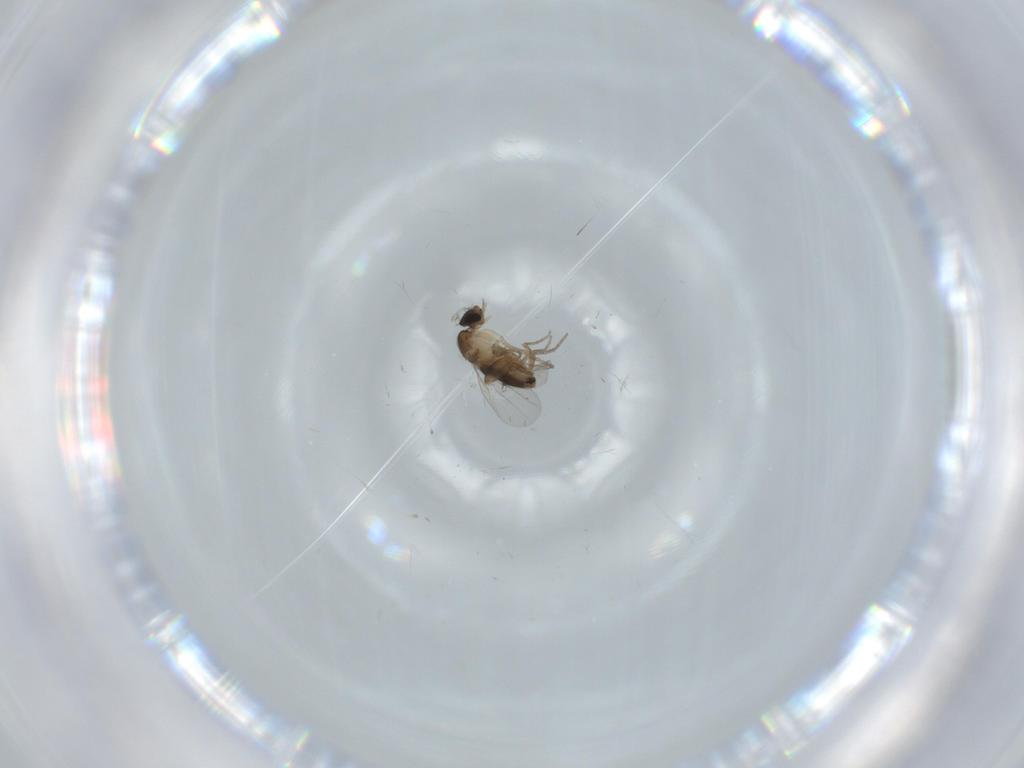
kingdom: Animalia
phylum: Arthropoda
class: Insecta
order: Diptera
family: Phoridae
